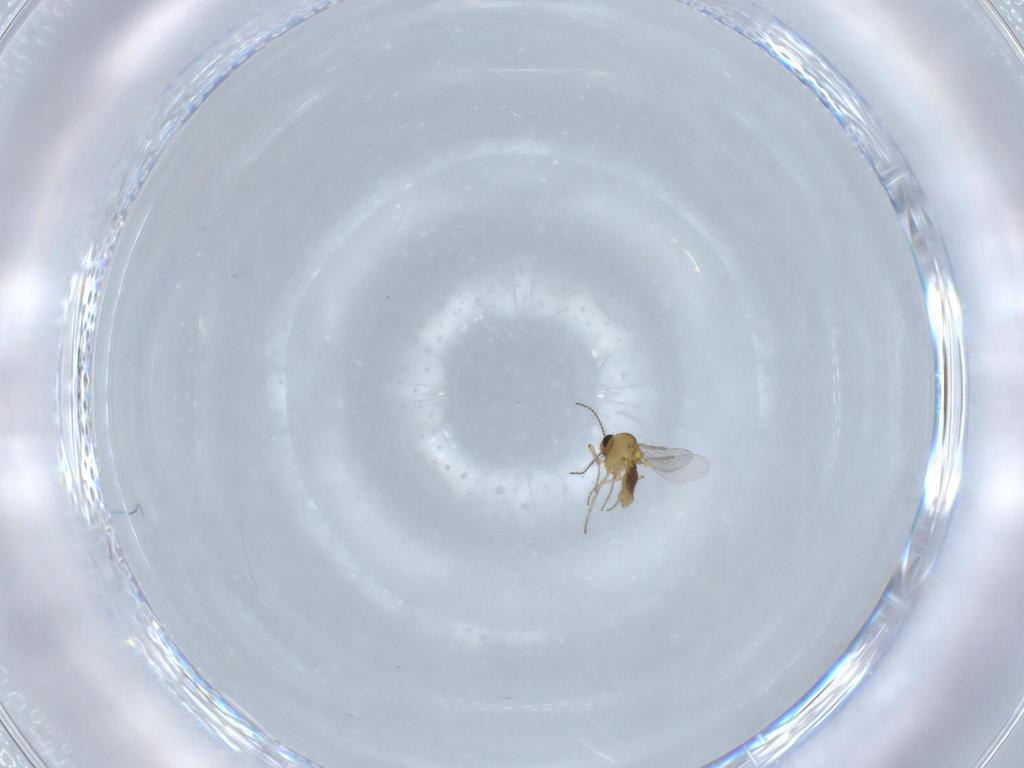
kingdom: Animalia
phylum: Arthropoda
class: Insecta
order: Diptera
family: Ceratopogonidae
